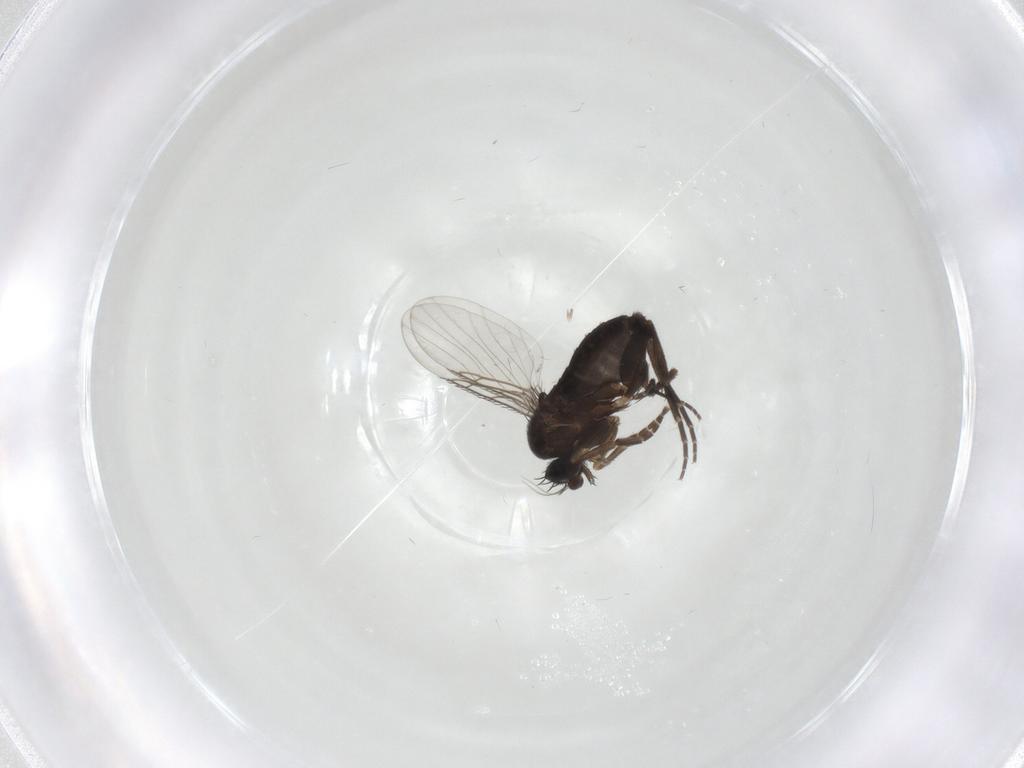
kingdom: Animalia
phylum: Arthropoda
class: Insecta
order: Diptera
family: Phoridae
